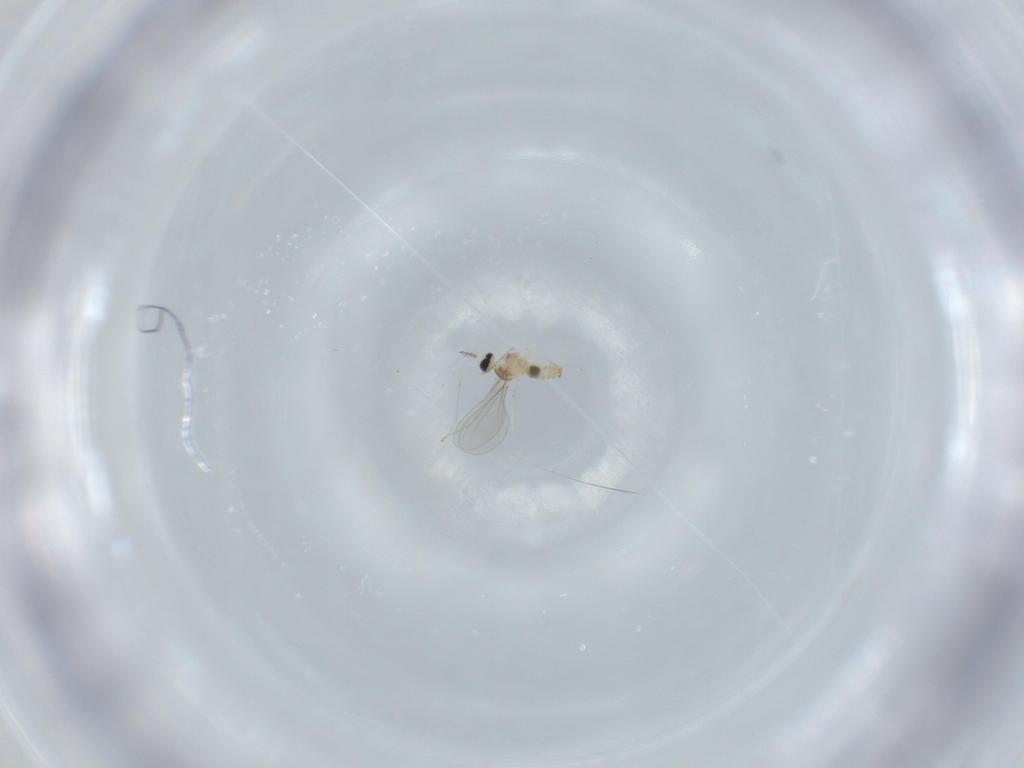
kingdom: Animalia
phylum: Arthropoda
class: Insecta
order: Diptera
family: Cecidomyiidae
